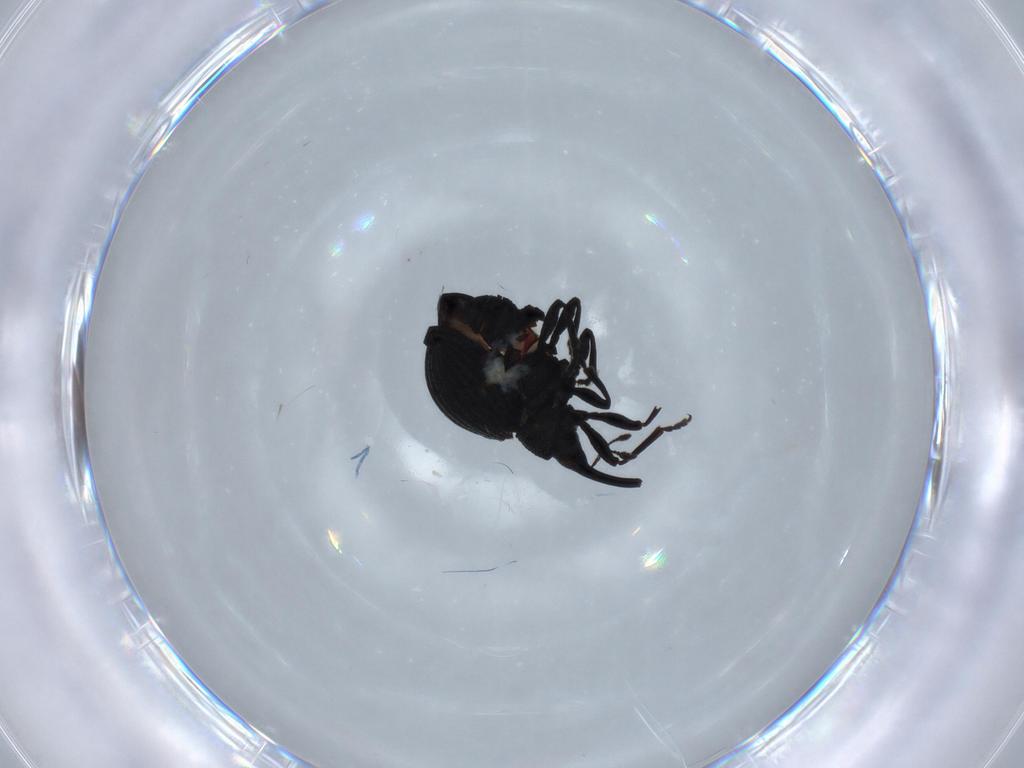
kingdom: Animalia
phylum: Arthropoda
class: Insecta
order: Coleoptera
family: Brentidae
